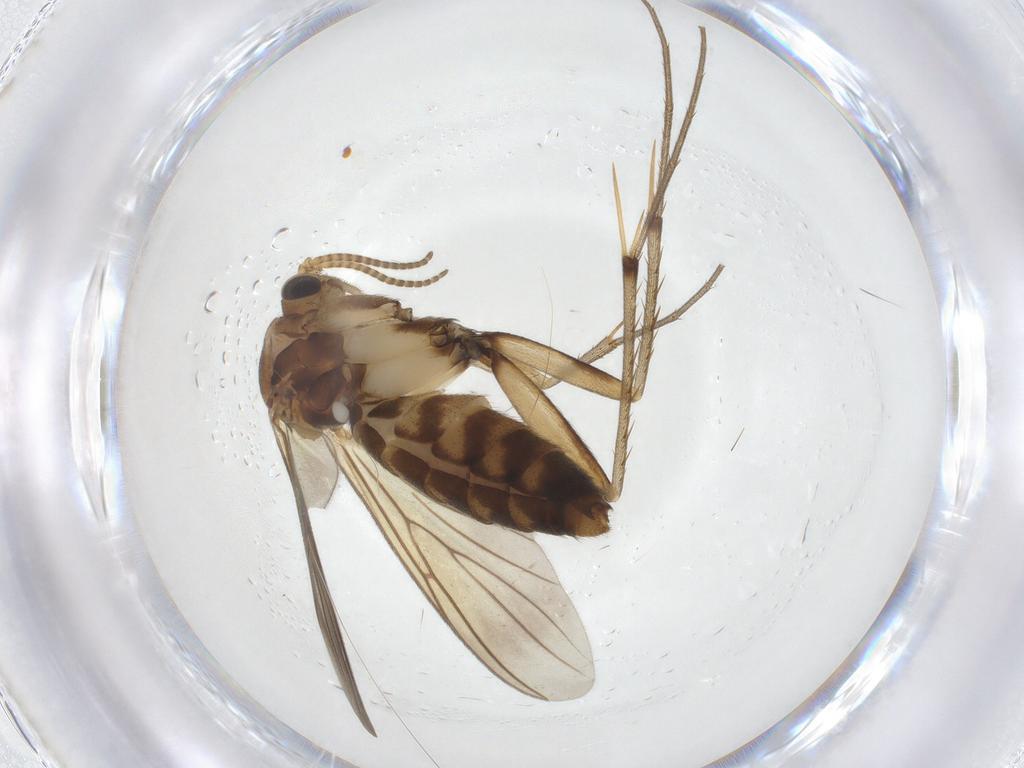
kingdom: Animalia
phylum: Arthropoda
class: Insecta
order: Diptera
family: Mycetophilidae
